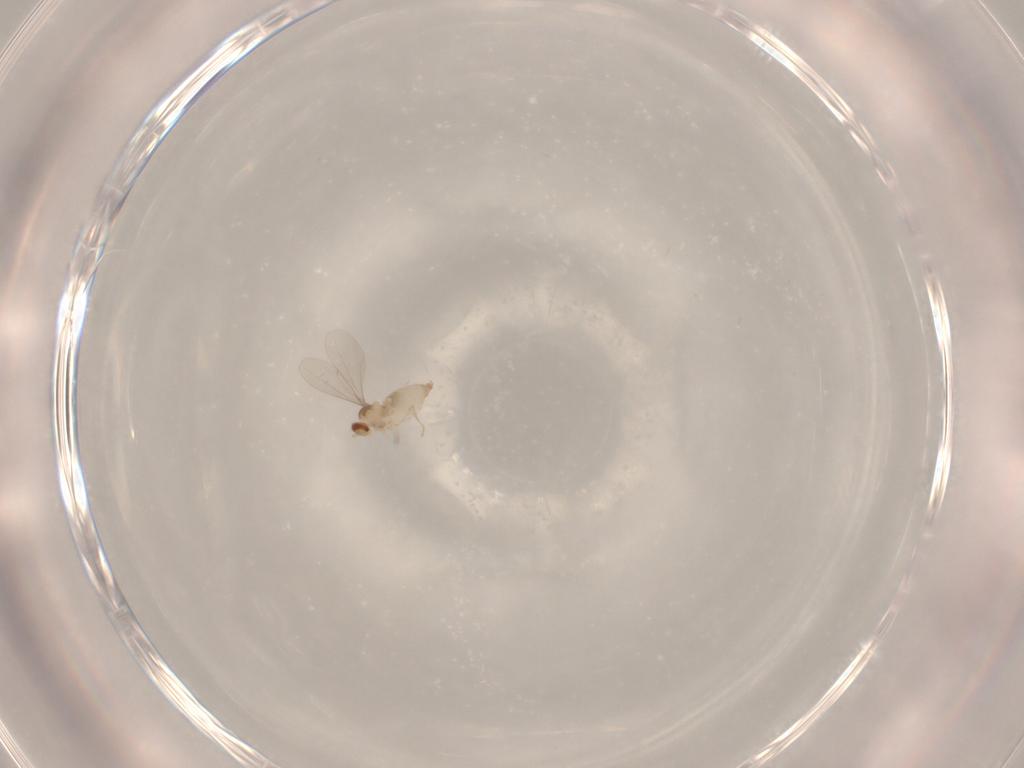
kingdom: Animalia
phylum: Arthropoda
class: Insecta
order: Diptera
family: Cecidomyiidae
